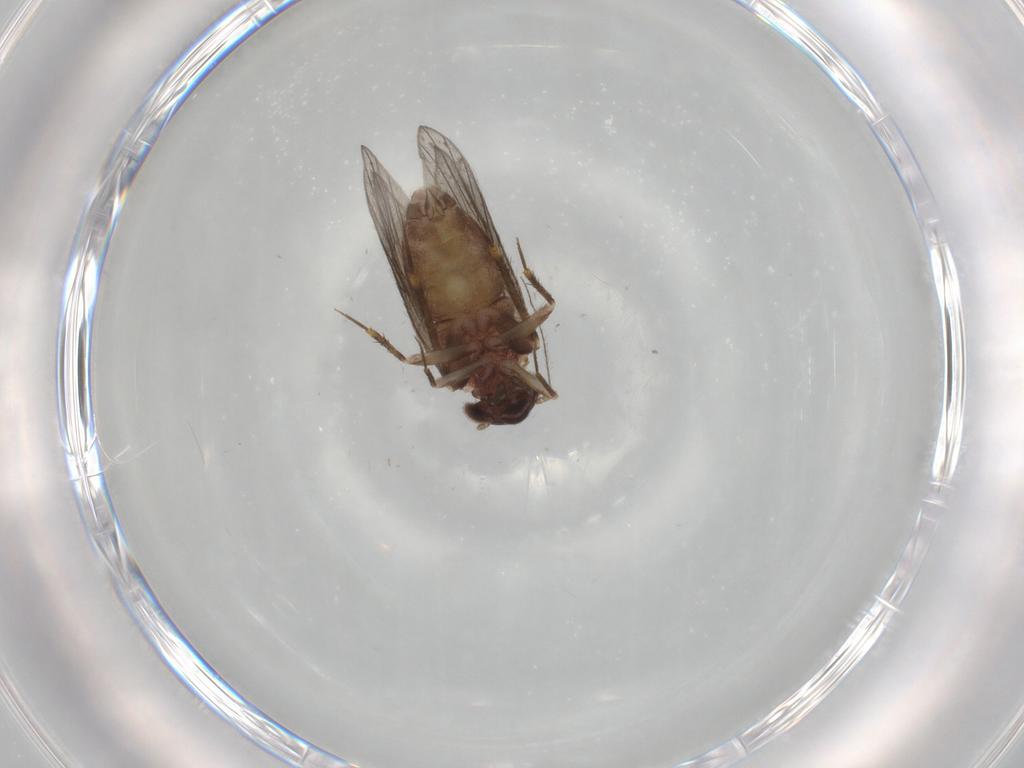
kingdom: Animalia
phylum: Arthropoda
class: Insecta
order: Psocodea
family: Lepidopsocidae
